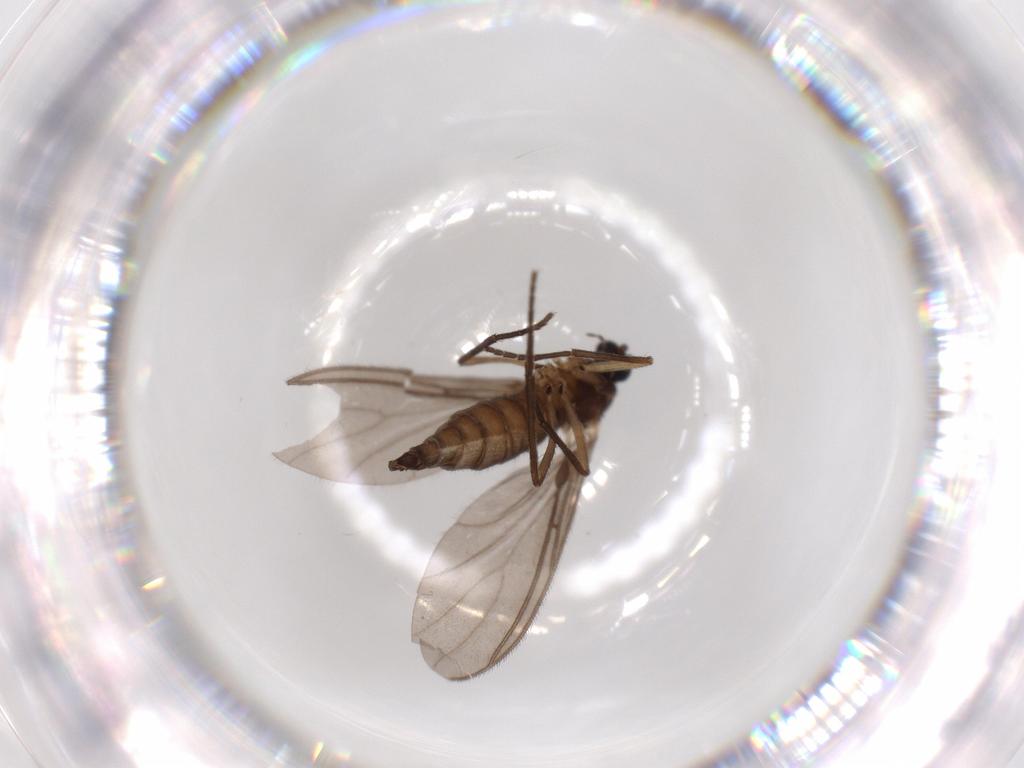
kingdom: Animalia
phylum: Arthropoda
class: Insecta
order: Diptera
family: Sciaridae
